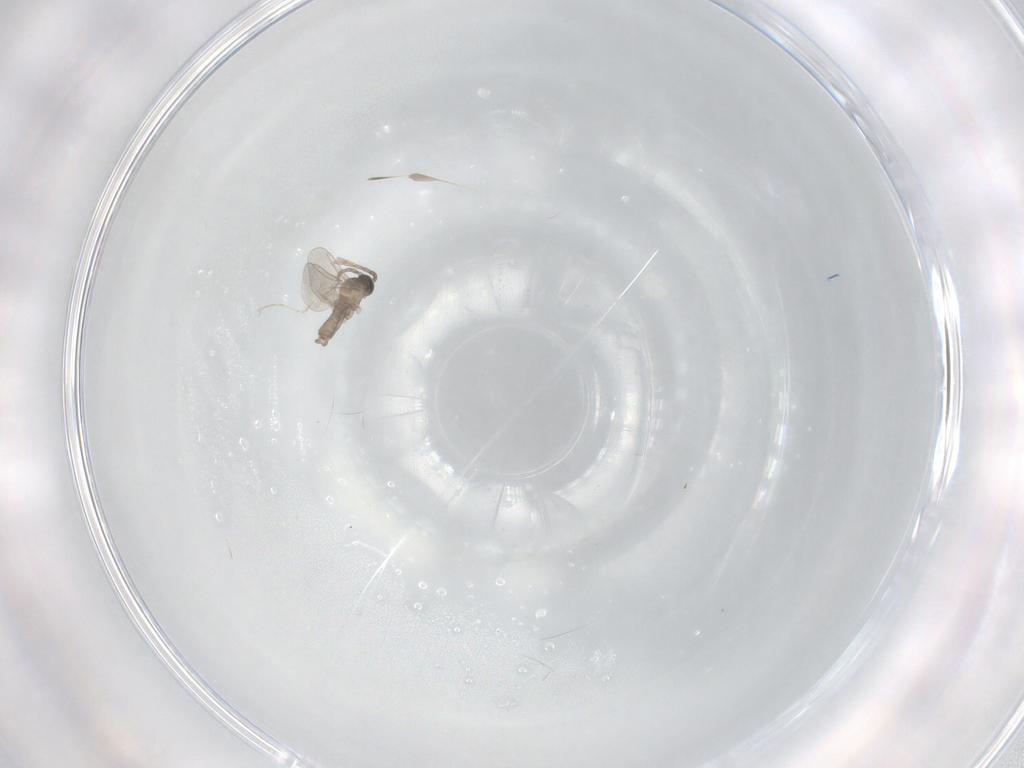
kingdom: Animalia
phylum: Arthropoda
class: Insecta
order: Diptera
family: Cecidomyiidae
